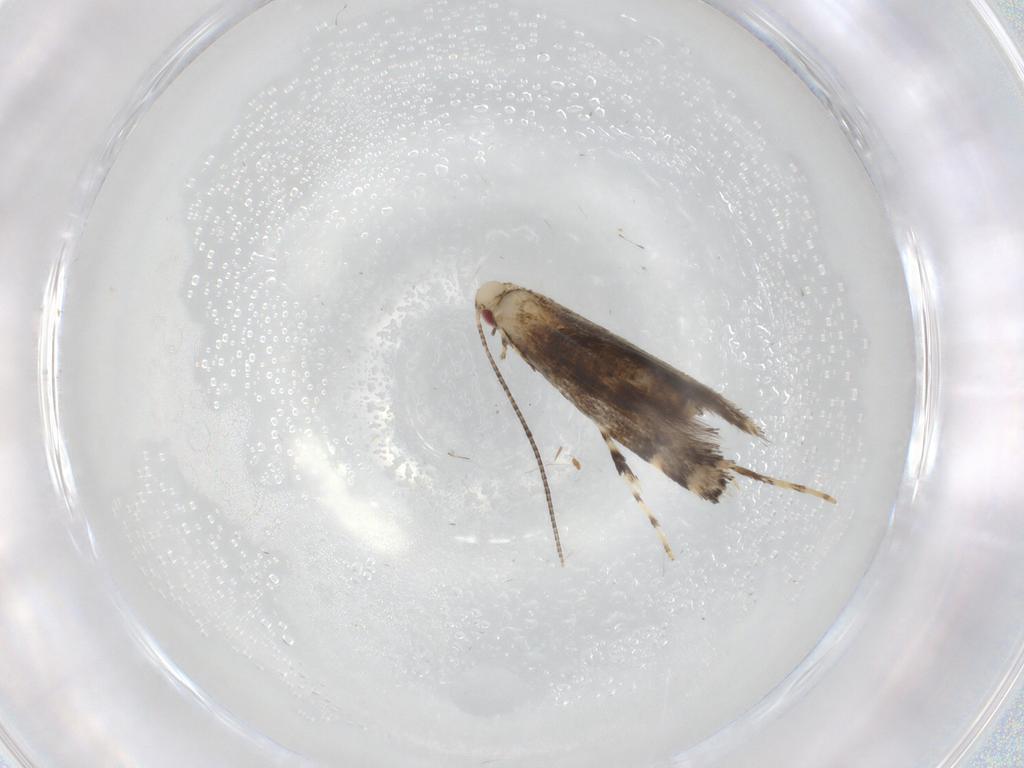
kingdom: Animalia
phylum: Arthropoda
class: Insecta
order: Lepidoptera
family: Gracillariidae
